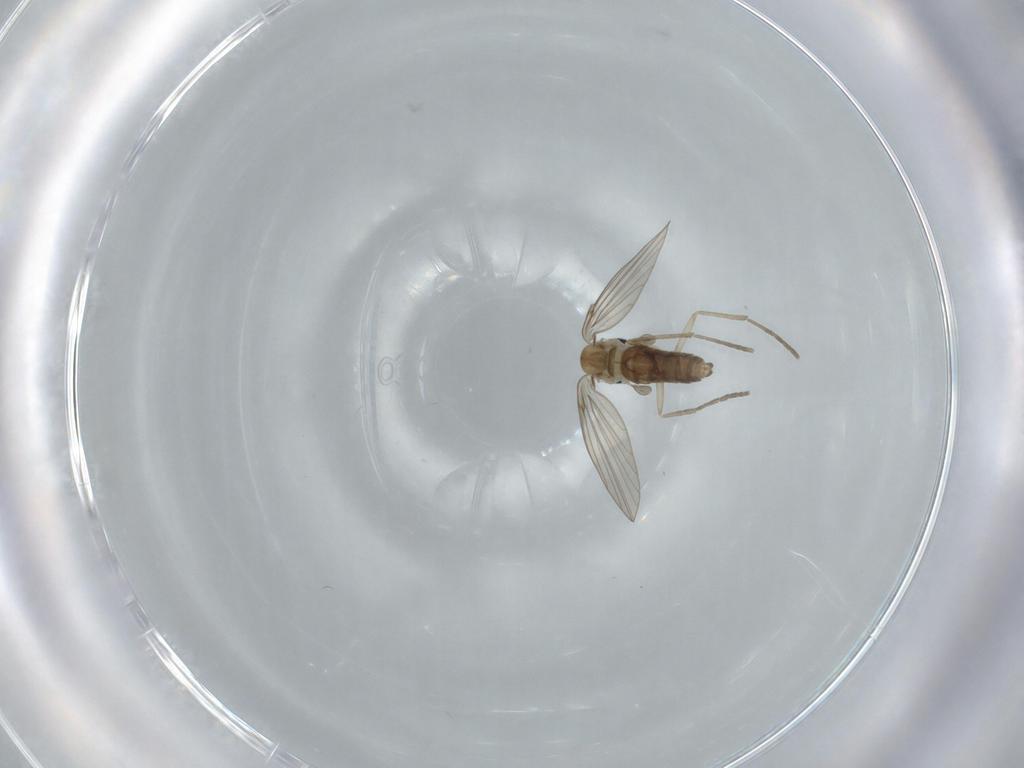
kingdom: Animalia
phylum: Arthropoda
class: Insecta
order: Diptera
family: Psychodidae
